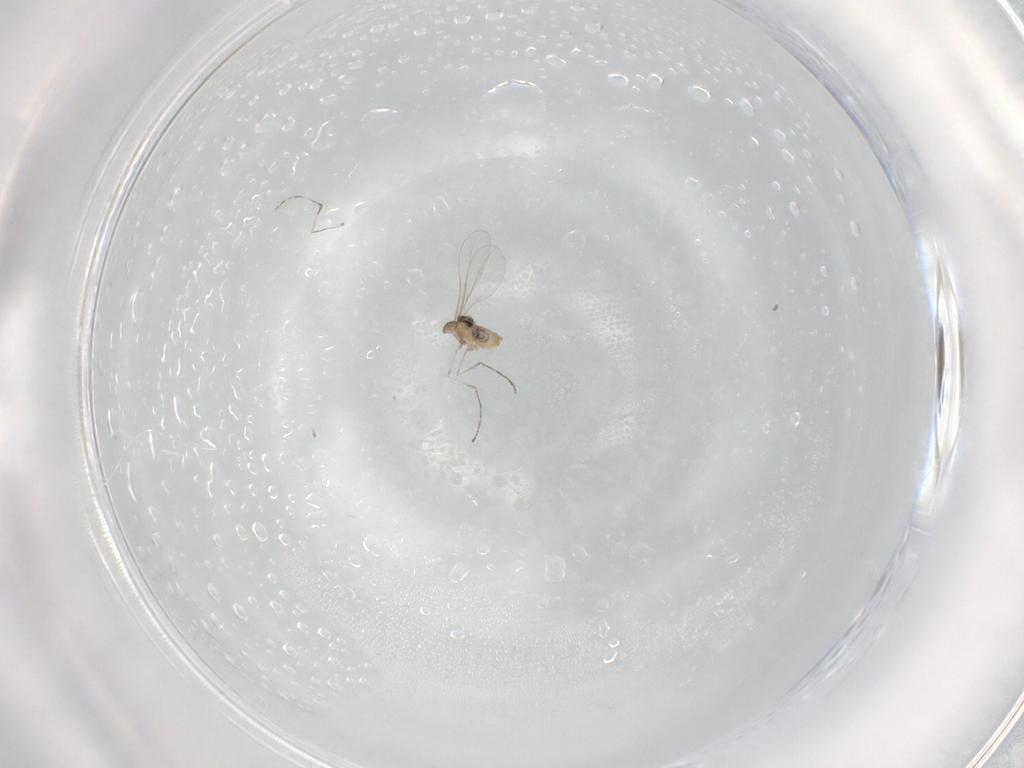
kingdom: Animalia
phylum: Arthropoda
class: Insecta
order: Diptera
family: Cecidomyiidae
